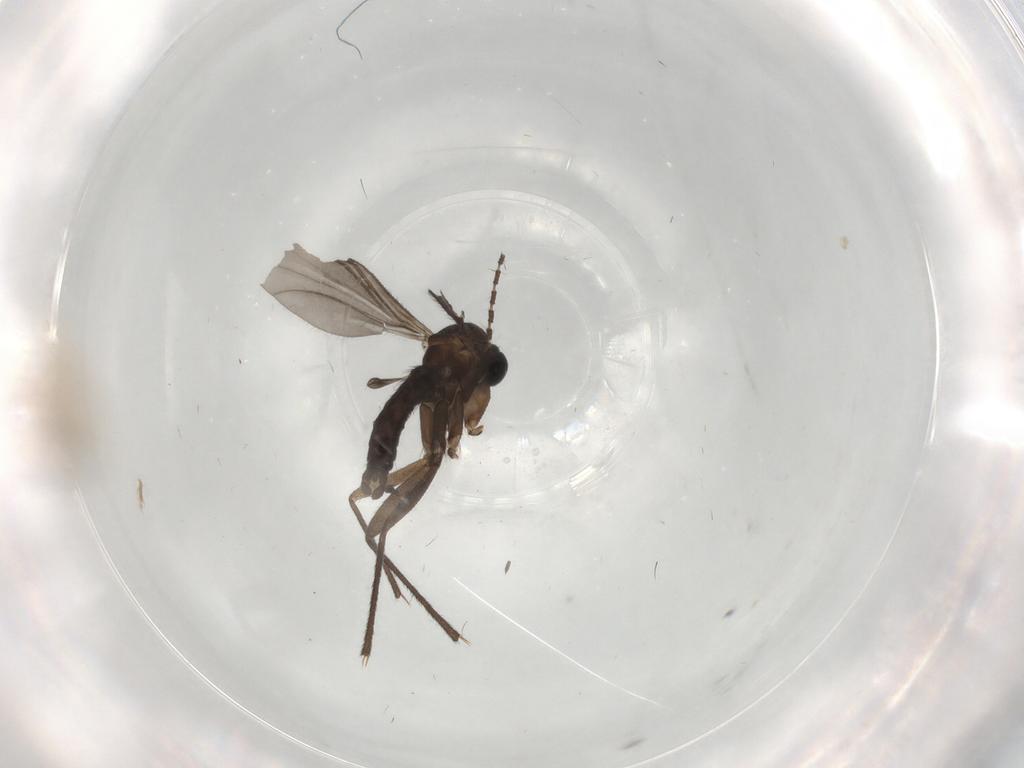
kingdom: Animalia
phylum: Arthropoda
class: Insecta
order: Diptera
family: Sciaridae
